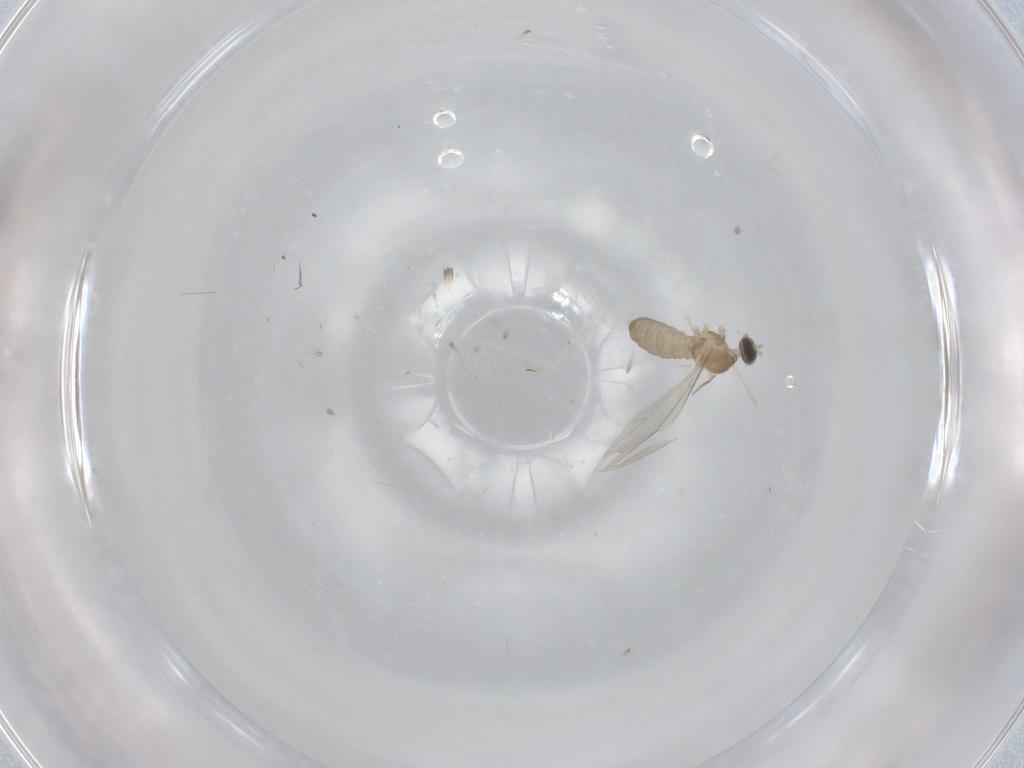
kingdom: Animalia
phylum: Arthropoda
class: Insecta
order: Diptera
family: Cecidomyiidae
